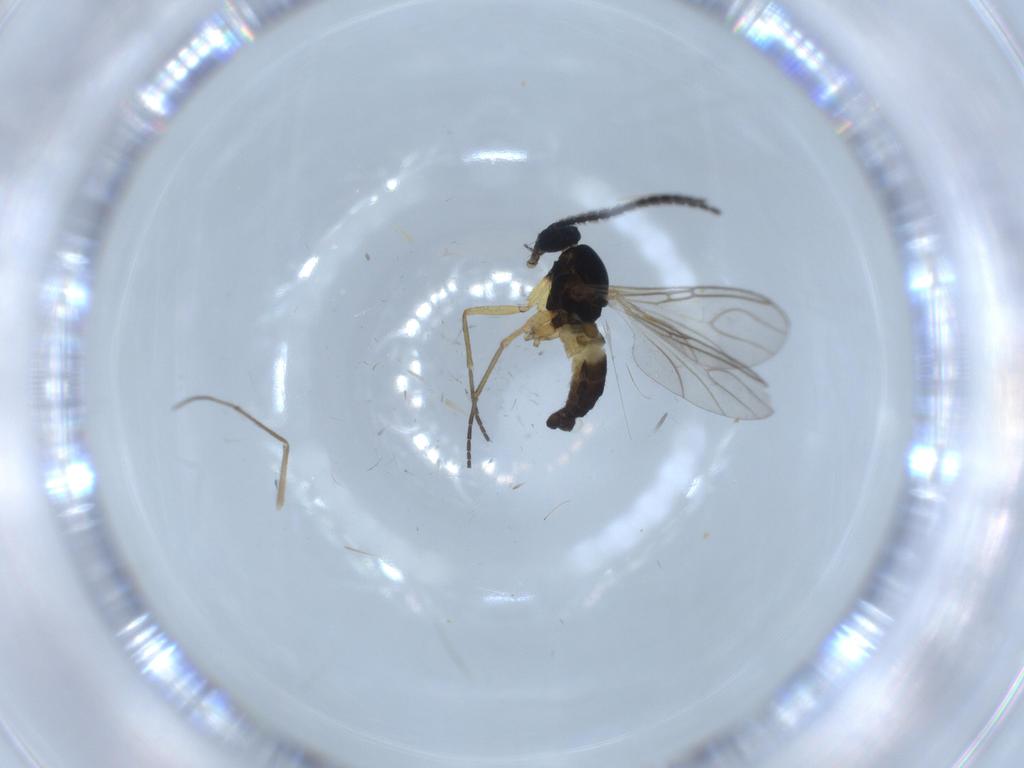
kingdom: Animalia
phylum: Arthropoda
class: Insecta
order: Diptera
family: Sciaridae
